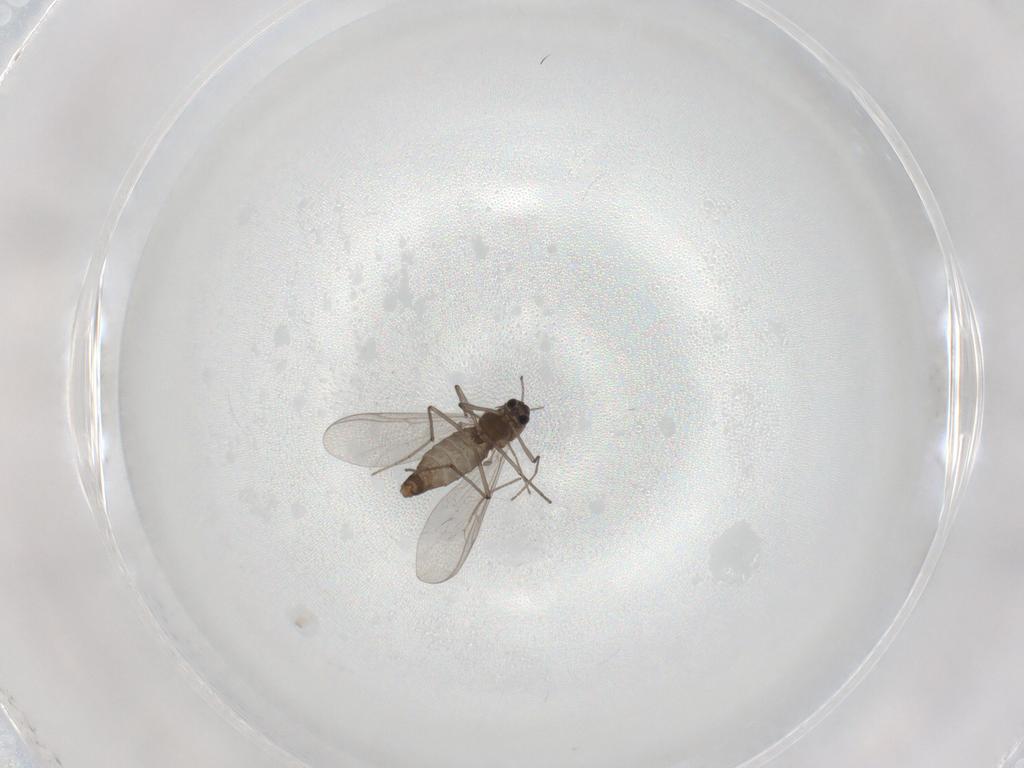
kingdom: Animalia
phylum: Arthropoda
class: Insecta
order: Diptera
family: Chironomidae
